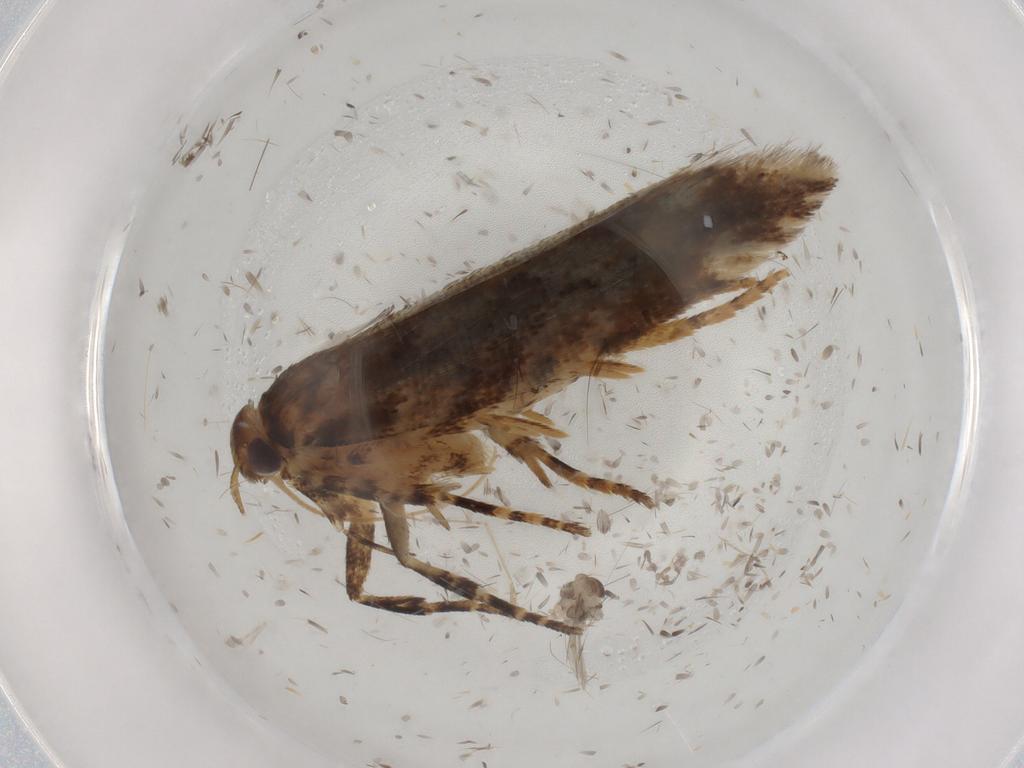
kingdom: Animalia
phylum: Arthropoda
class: Insecta
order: Lepidoptera
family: Gelechiidae
